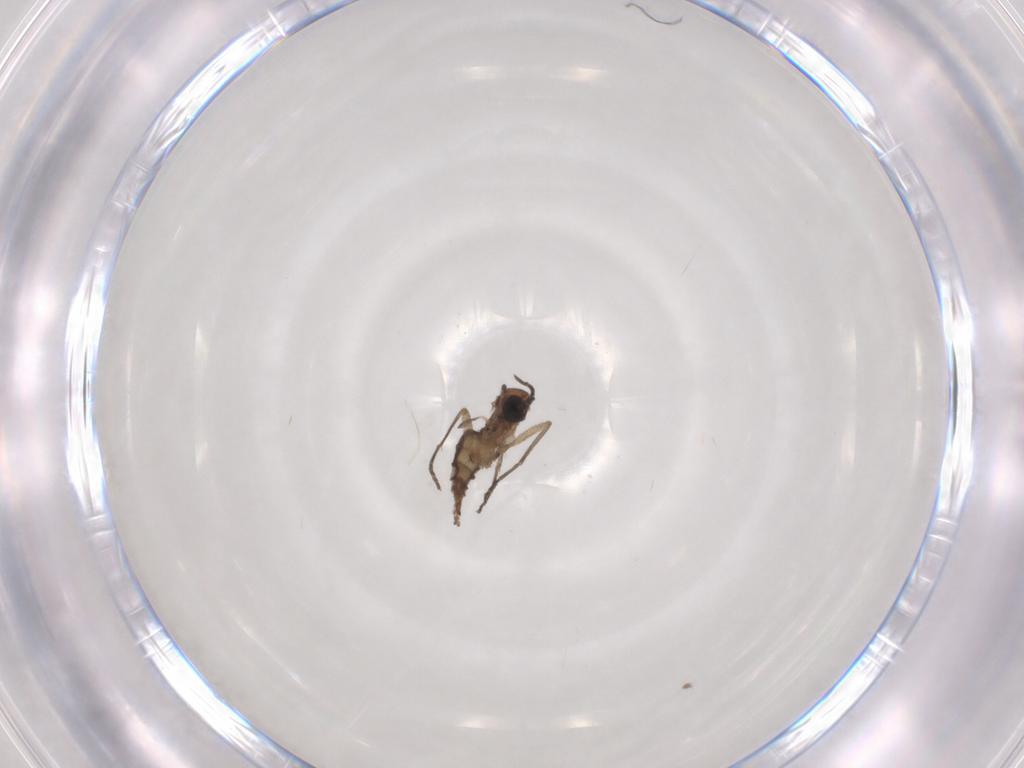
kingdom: Animalia
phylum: Arthropoda
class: Insecta
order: Diptera
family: Sciaridae
